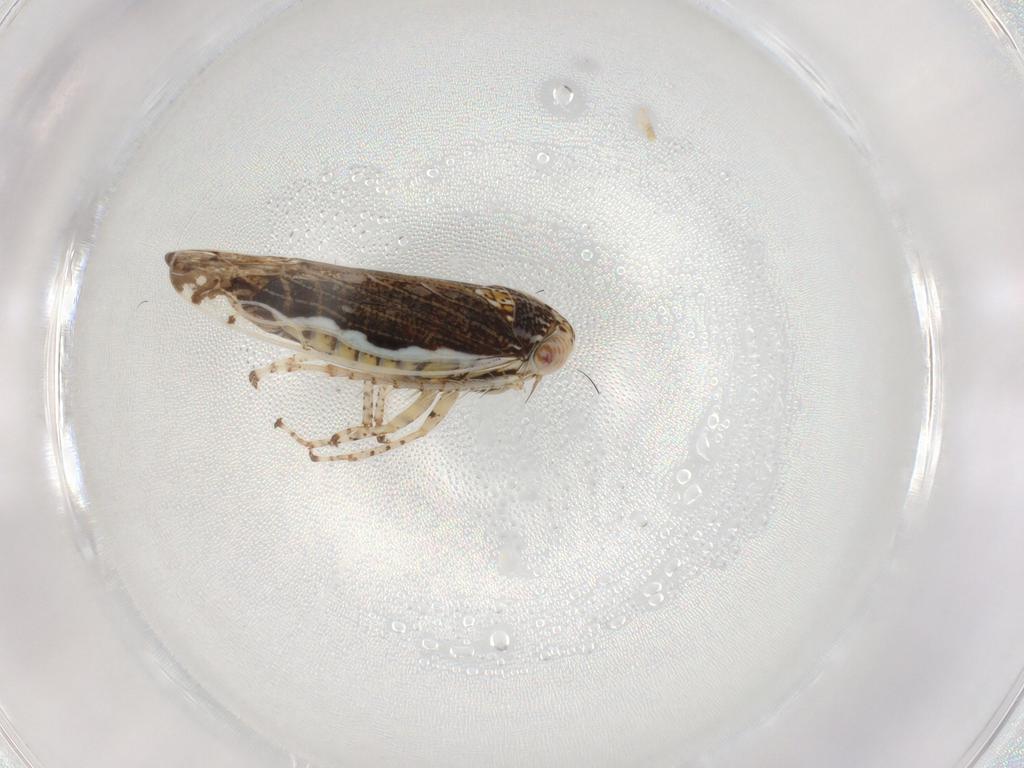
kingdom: Animalia
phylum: Arthropoda
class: Insecta
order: Hemiptera
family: Cicadellidae
